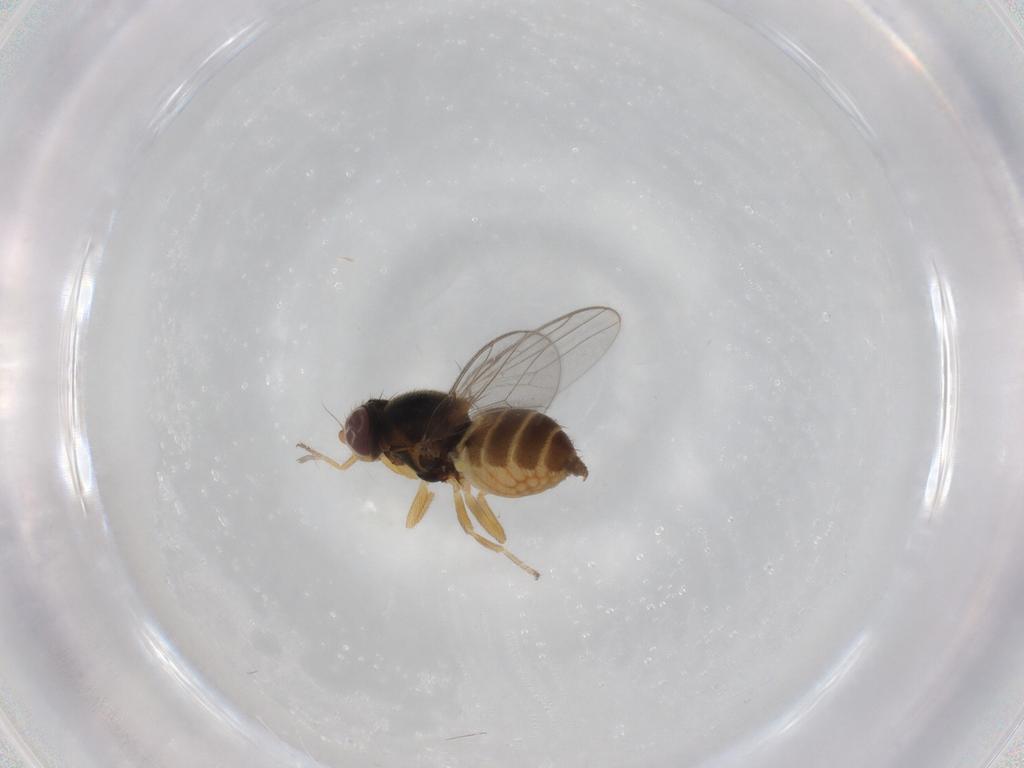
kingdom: Animalia
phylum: Arthropoda
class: Insecta
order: Diptera
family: Chloropidae
